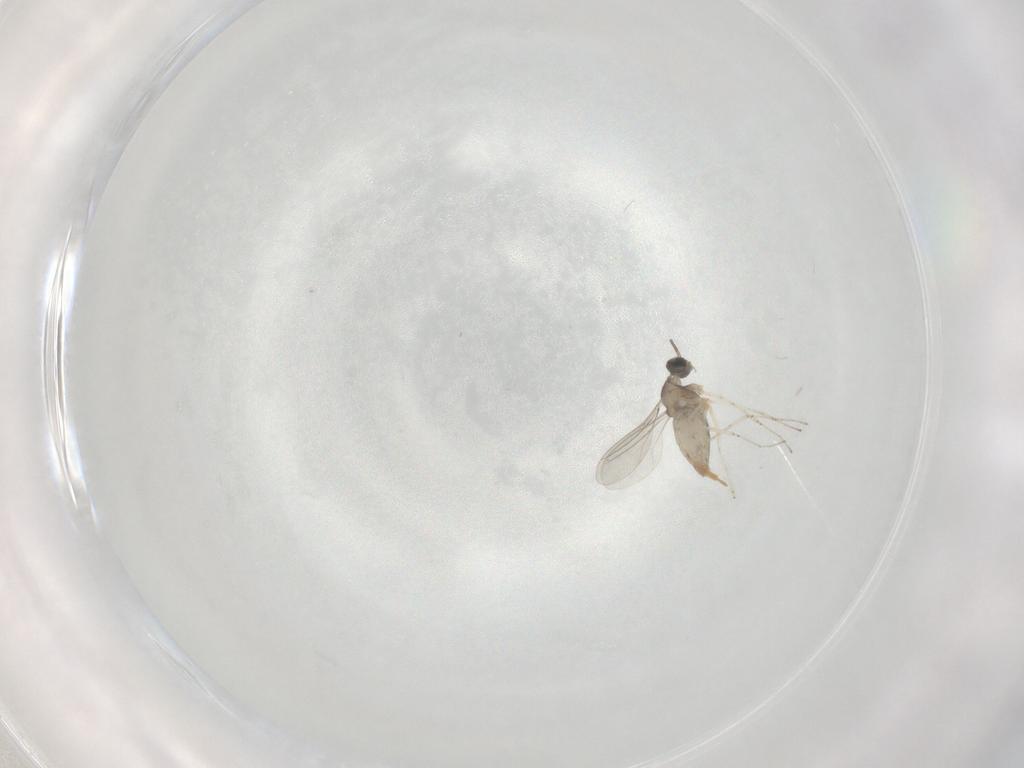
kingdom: Animalia
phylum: Arthropoda
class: Insecta
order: Diptera
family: Cecidomyiidae
